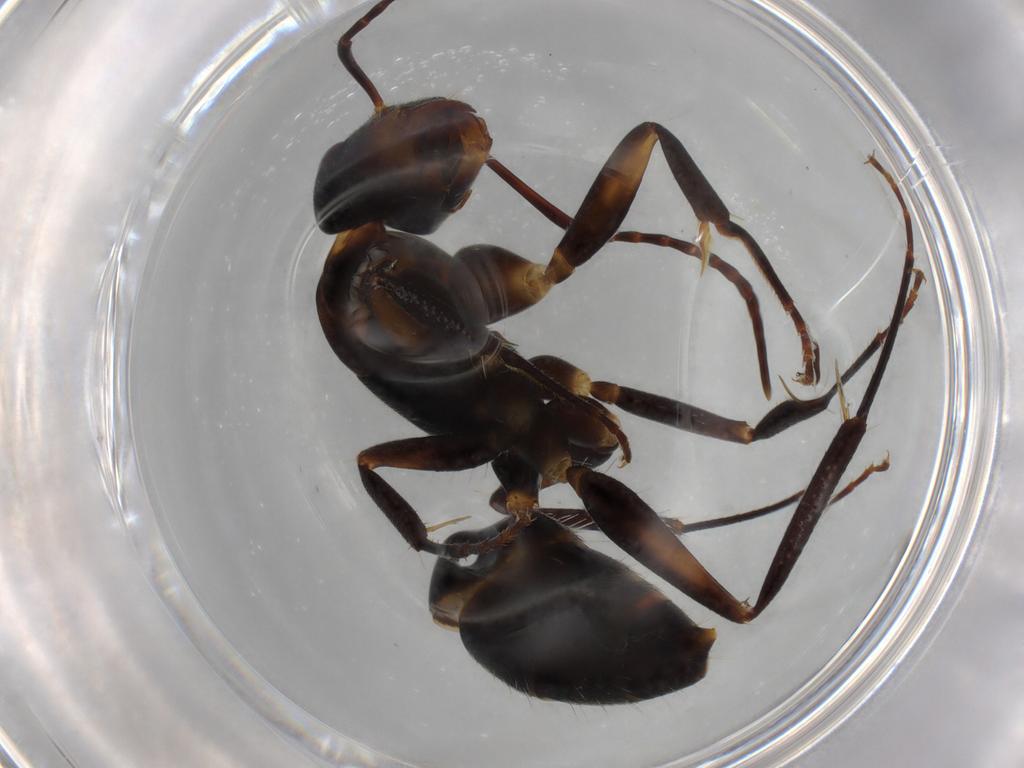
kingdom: Animalia
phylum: Arthropoda
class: Insecta
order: Hymenoptera
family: Formicidae
